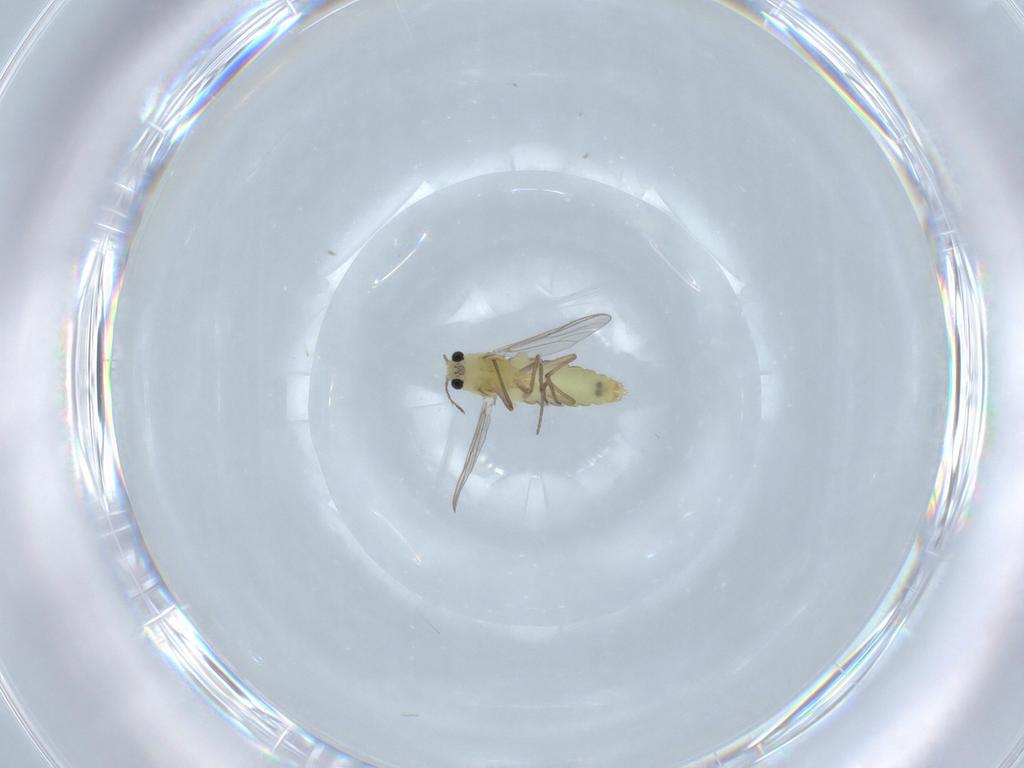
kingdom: Animalia
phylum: Arthropoda
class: Insecta
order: Diptera
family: Chironomidae
